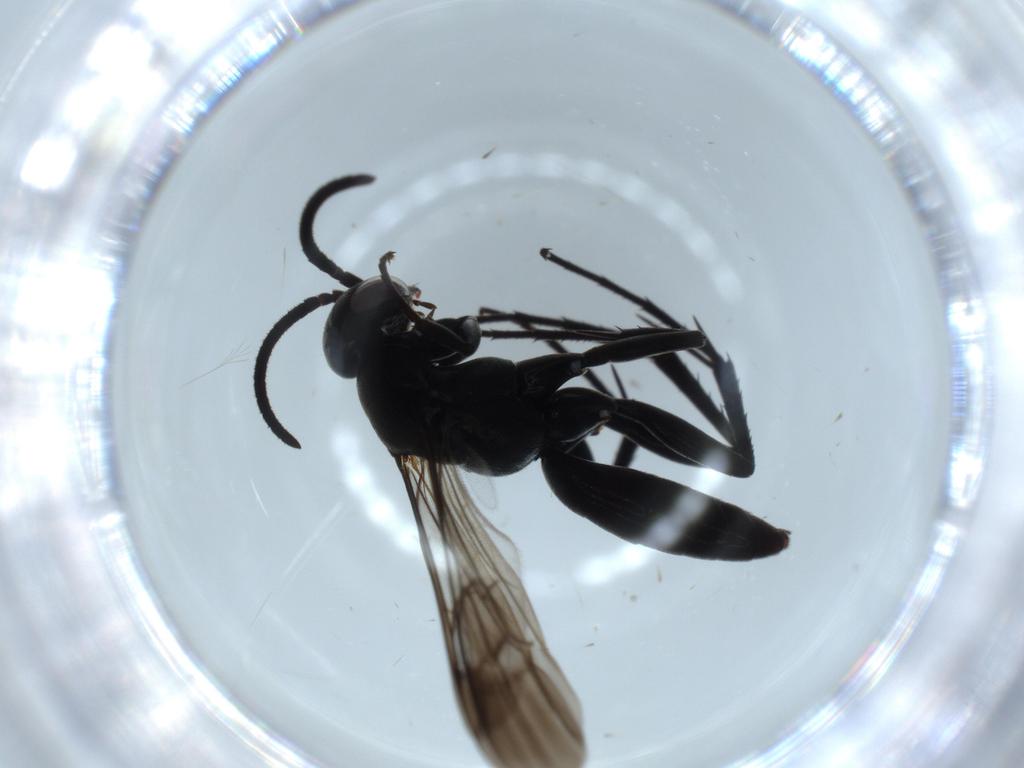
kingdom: Animalia
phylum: Arthropoda
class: Insecta
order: Hymenoptera
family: Pompilidae
